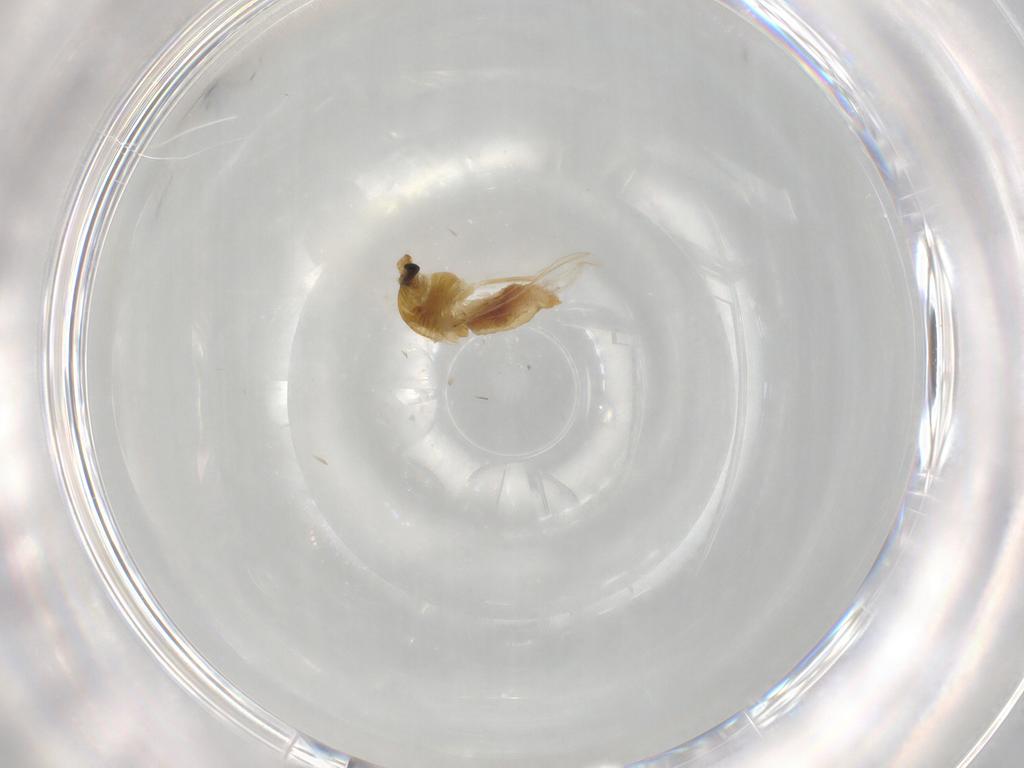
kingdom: Animalia
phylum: Arthropoda
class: Insecta
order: Diptera
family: Chironomidae
